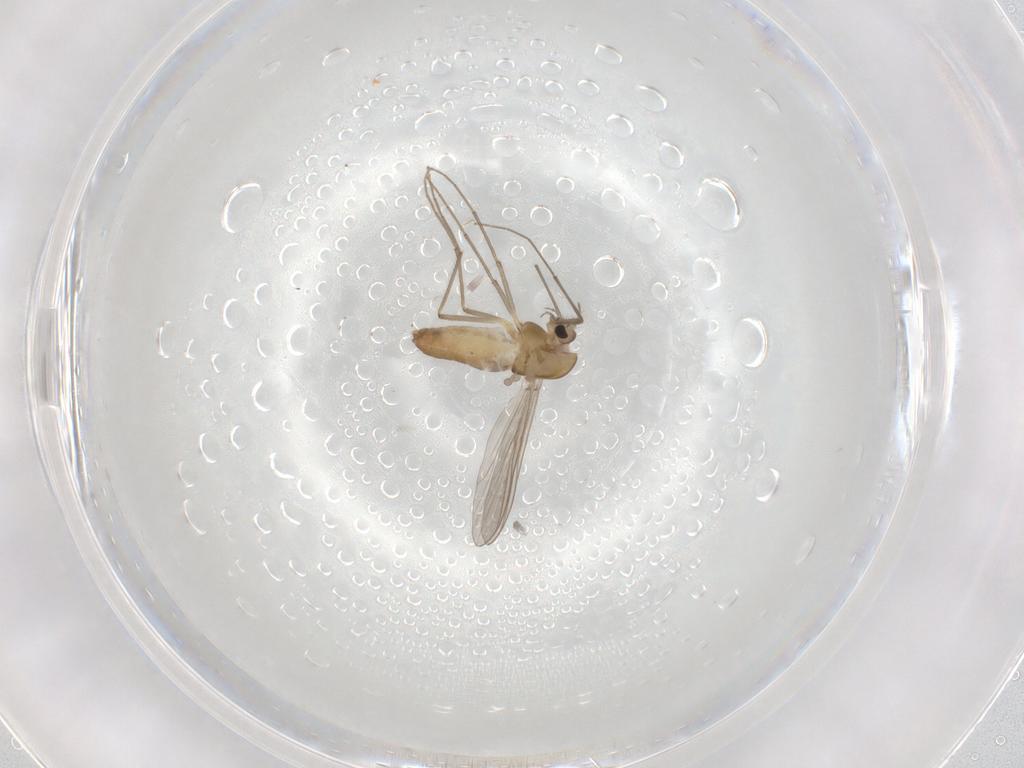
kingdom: Animalia
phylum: Arthropoda
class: Insecta
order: Diptera
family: Chironomidae
